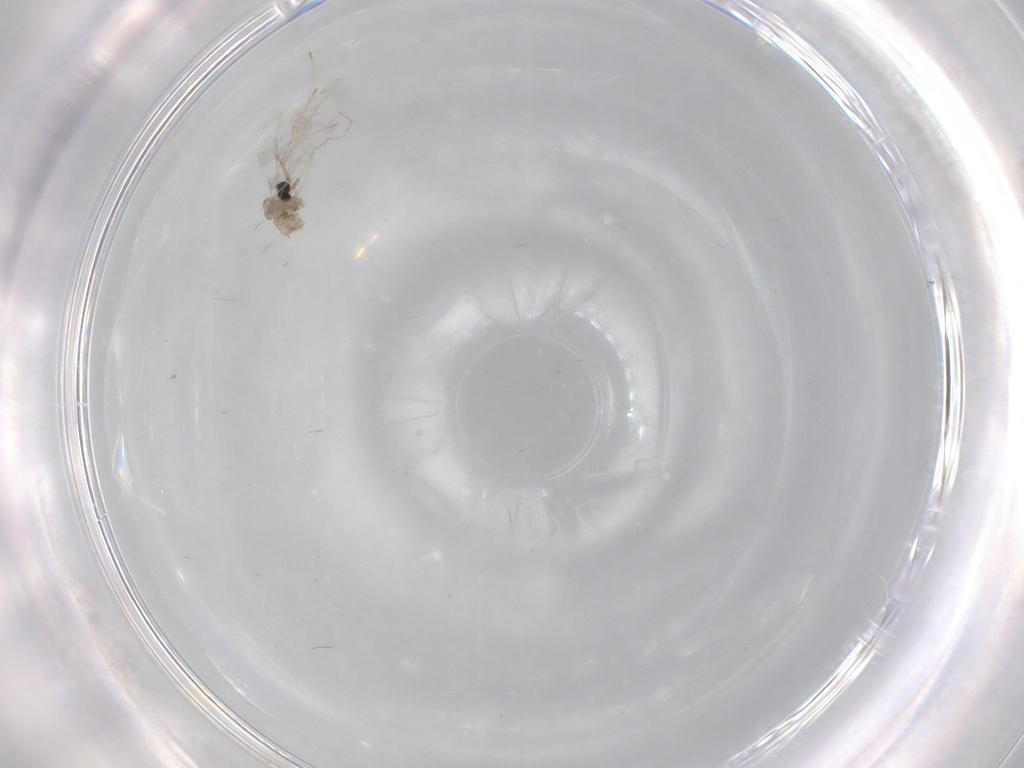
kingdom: Animalia
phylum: Arthropoda
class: Insecta
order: Diptera
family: Cecidomyiidae
